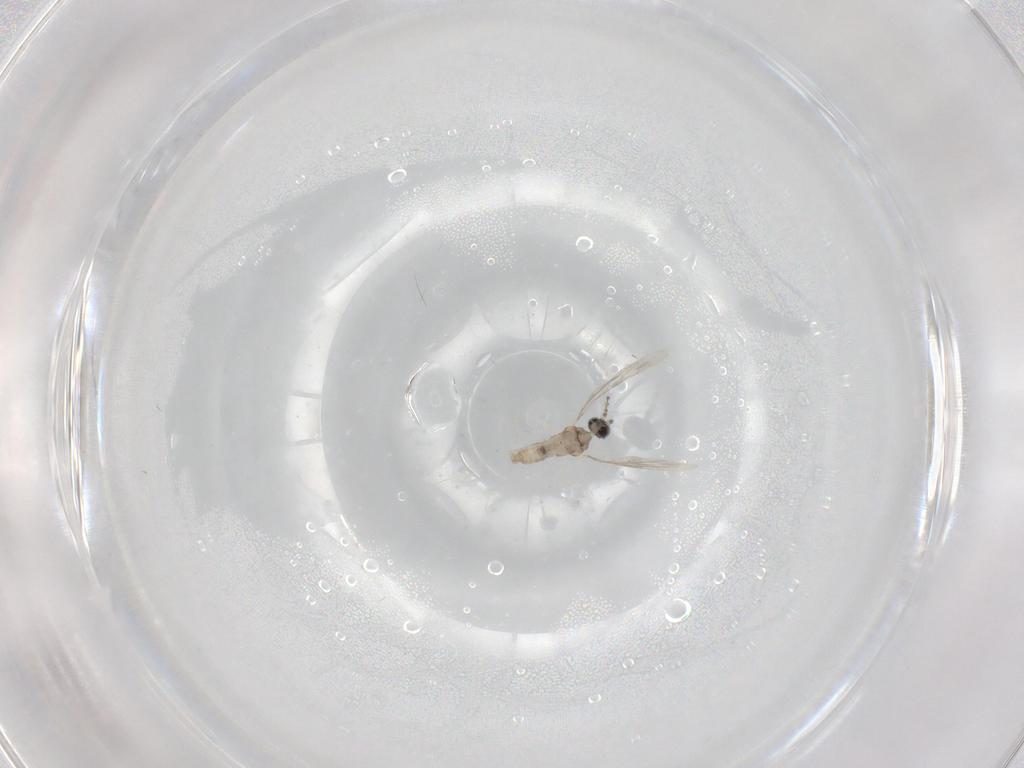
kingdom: Animalia
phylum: Arthropoda
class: Insecta
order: Diptera
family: Cecidomyiidae
